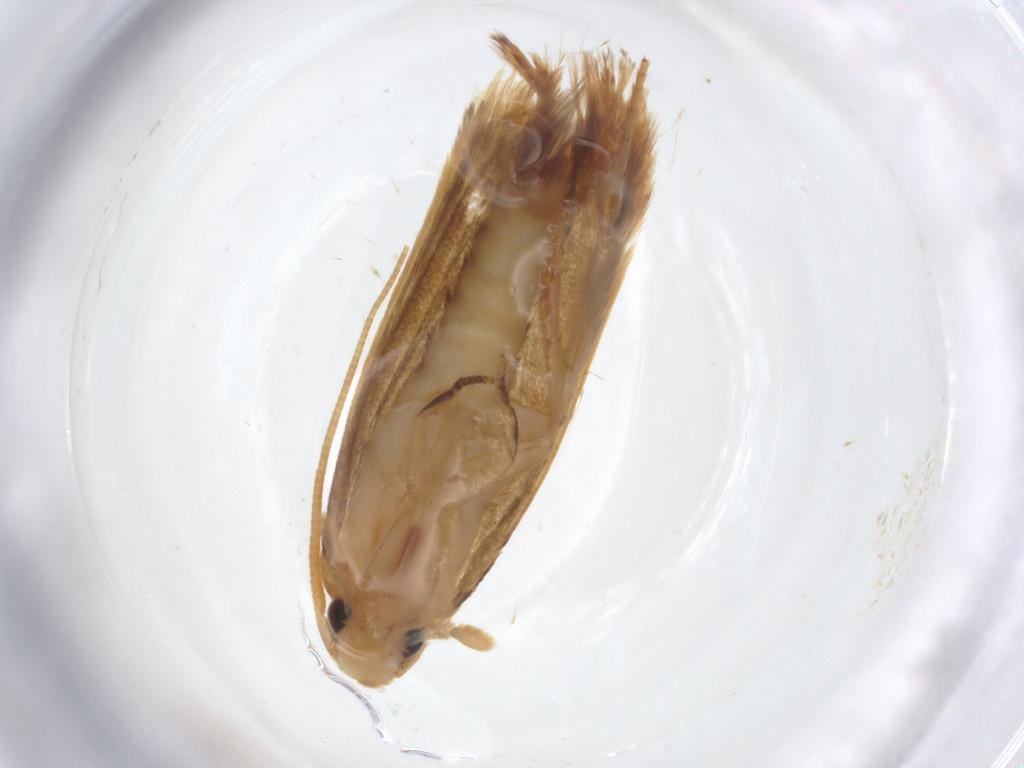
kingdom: Animalia
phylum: Arthropoda
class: Insecta
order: Lepidoptera
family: Tineidae
